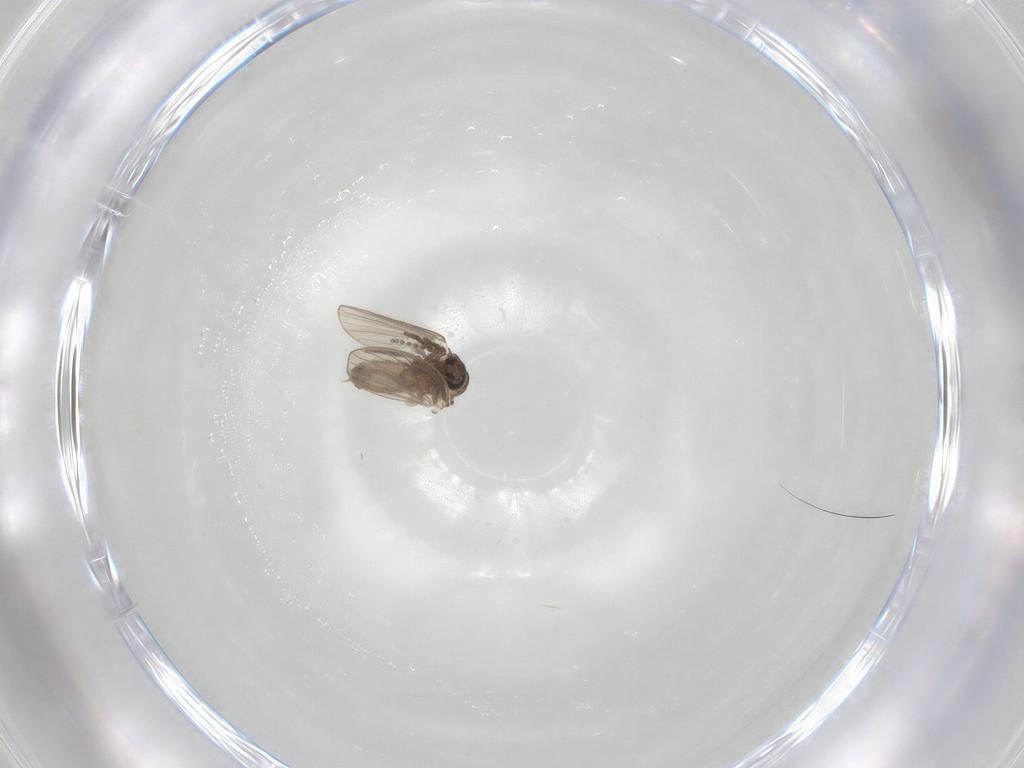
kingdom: Animalia
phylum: Arthropoda
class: Insecta
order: Diptera
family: Psychodidae
